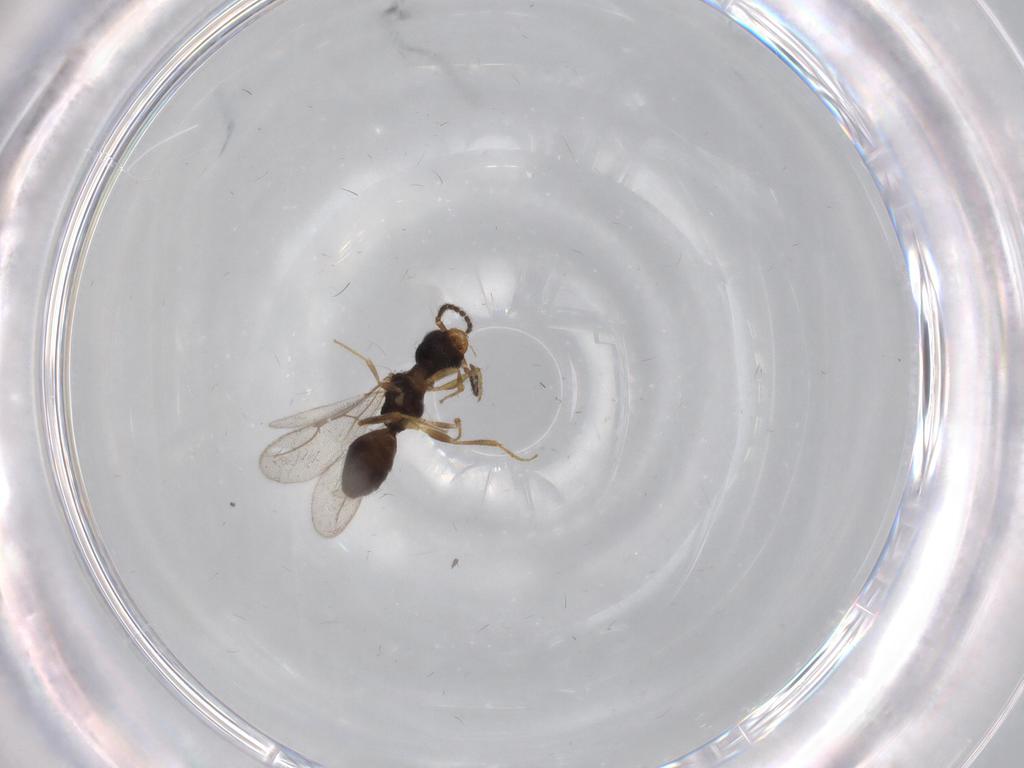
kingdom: Animalia
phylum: Arthropoda
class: Insecta
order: Hymenoptera
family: Bethylidae
